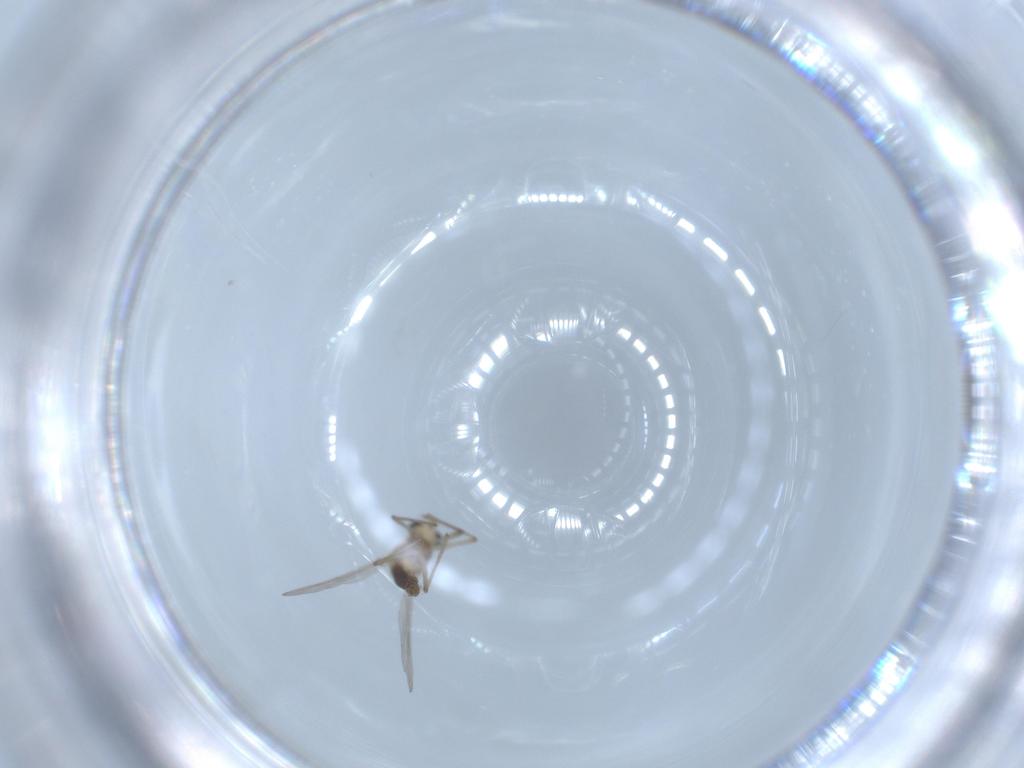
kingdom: Animalia
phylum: Arthropoda
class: Insecta
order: Diptera
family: Chironomidae
